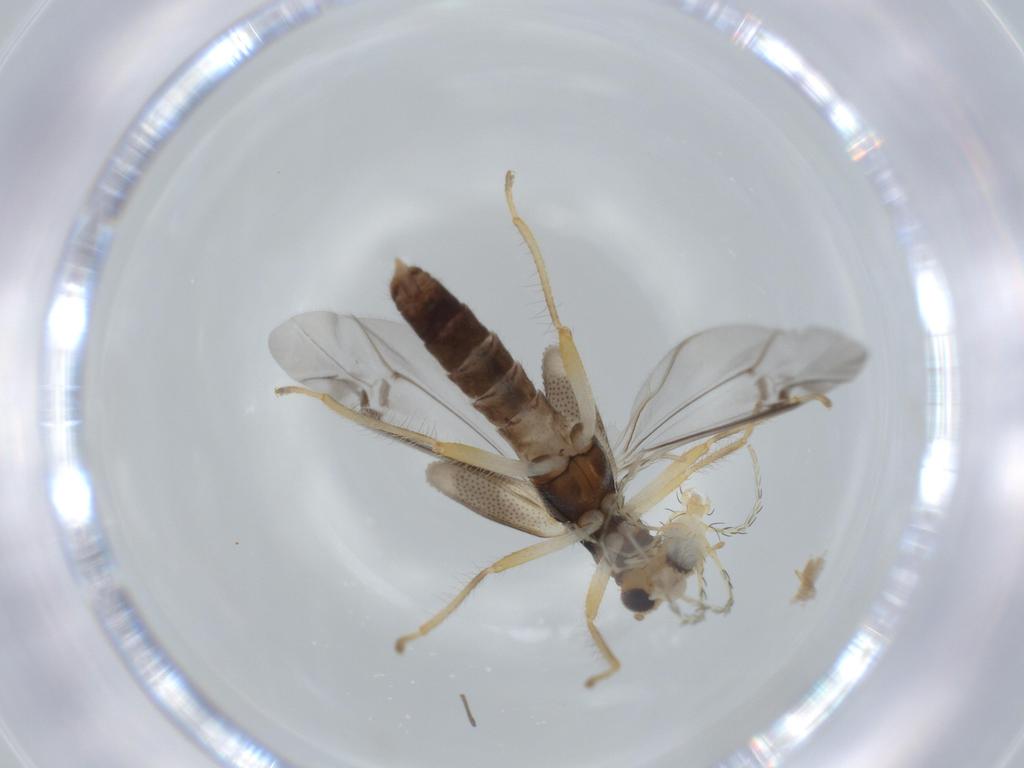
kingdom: Animalia
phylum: Arthropoda
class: Insecta
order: Coleoptera
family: Cleridae
